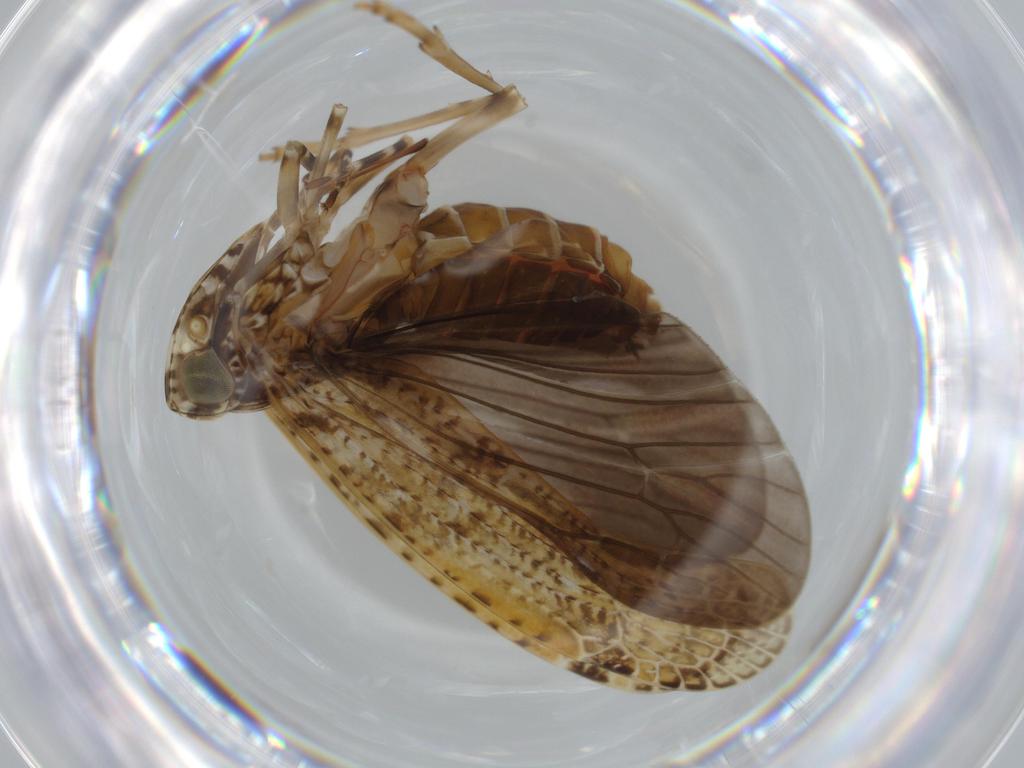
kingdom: Animalia
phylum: Arthropoda
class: Insecta
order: Hemiptera
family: Achilidae
